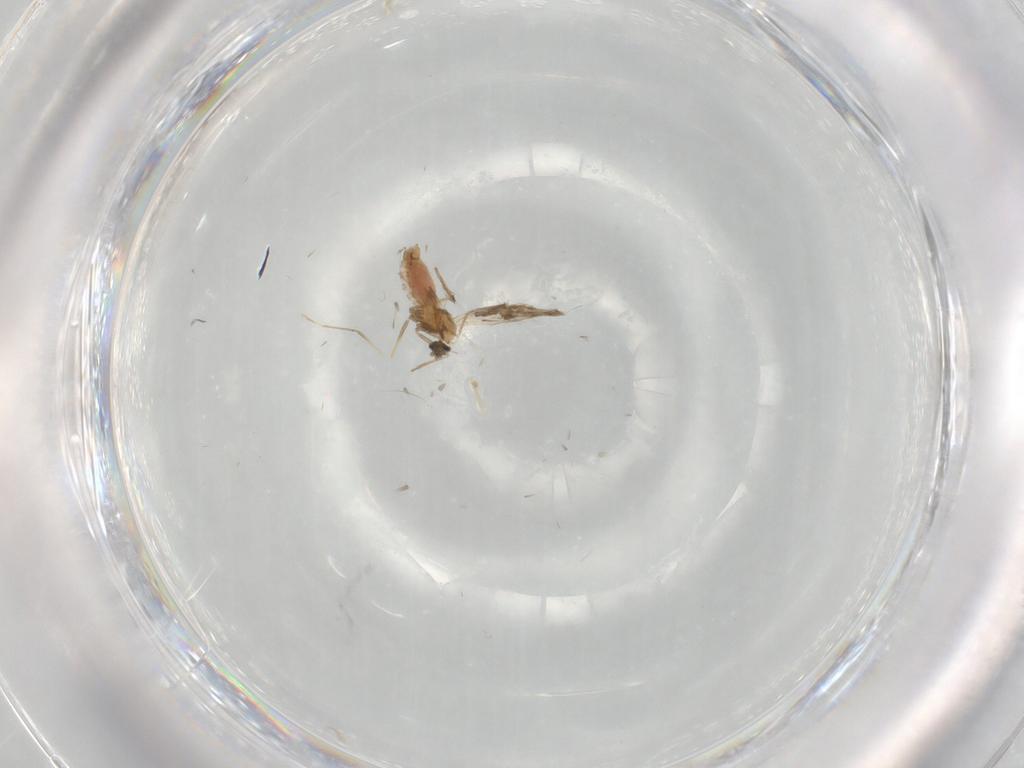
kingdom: Animalia
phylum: Arthropoda
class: Insecta
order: Diptera
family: Cecidomyiidae
